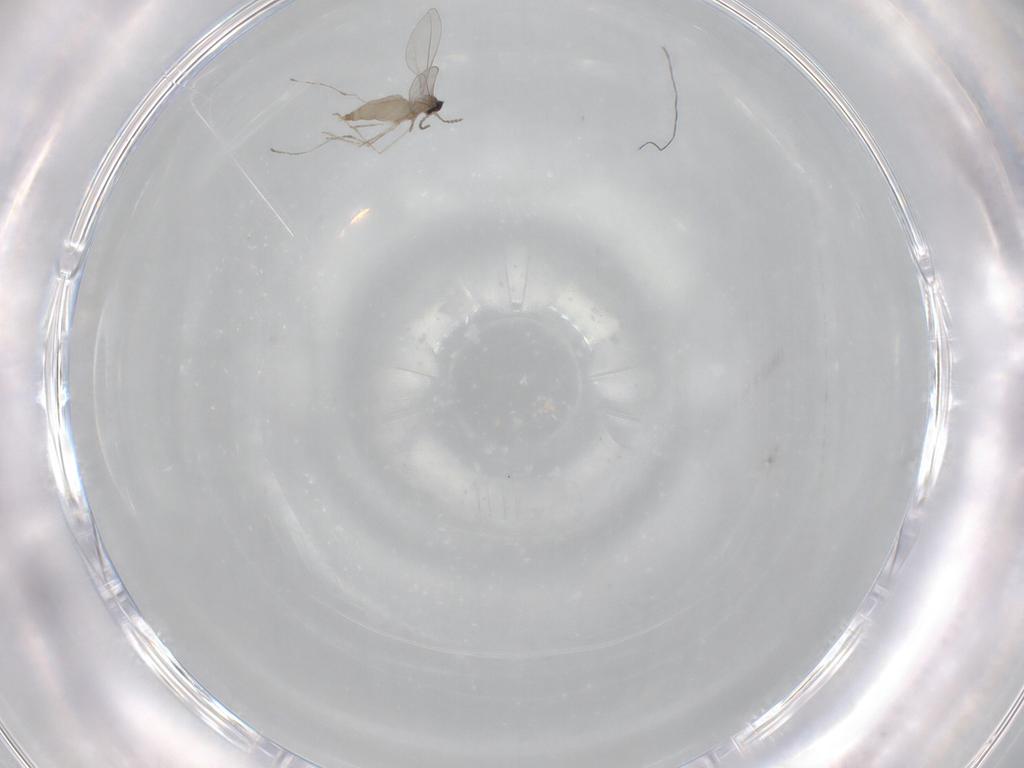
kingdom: Animalia
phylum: Arthropoda
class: Insecta
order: Diptera
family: Cecidomyiidae
